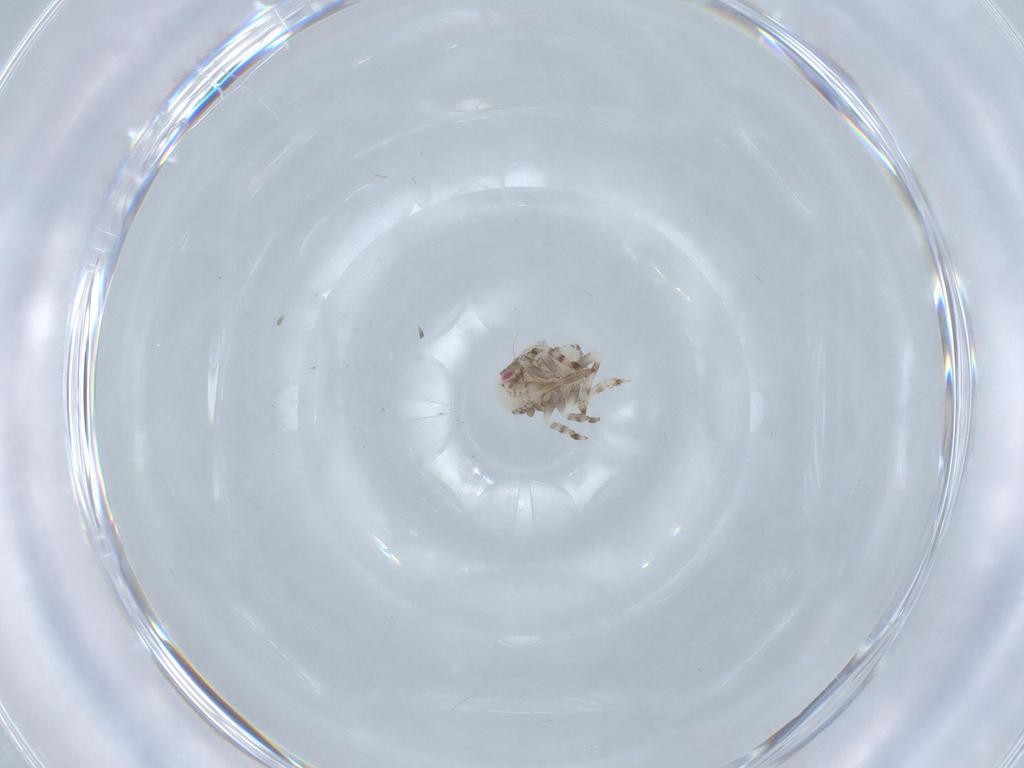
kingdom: Animalia
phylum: Arthropoda
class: Insecta
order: Hemiptera
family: Acanaloniidae
